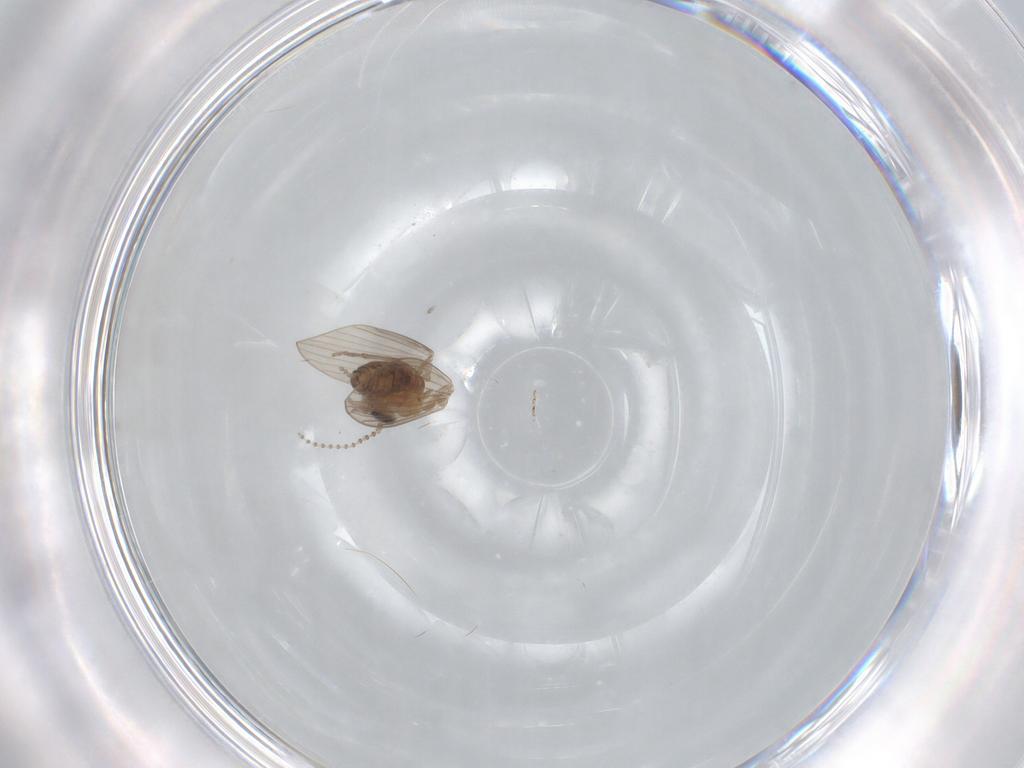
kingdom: Animalia
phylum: Arthropoda
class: Insecta
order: Diptera
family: Psychodidae
